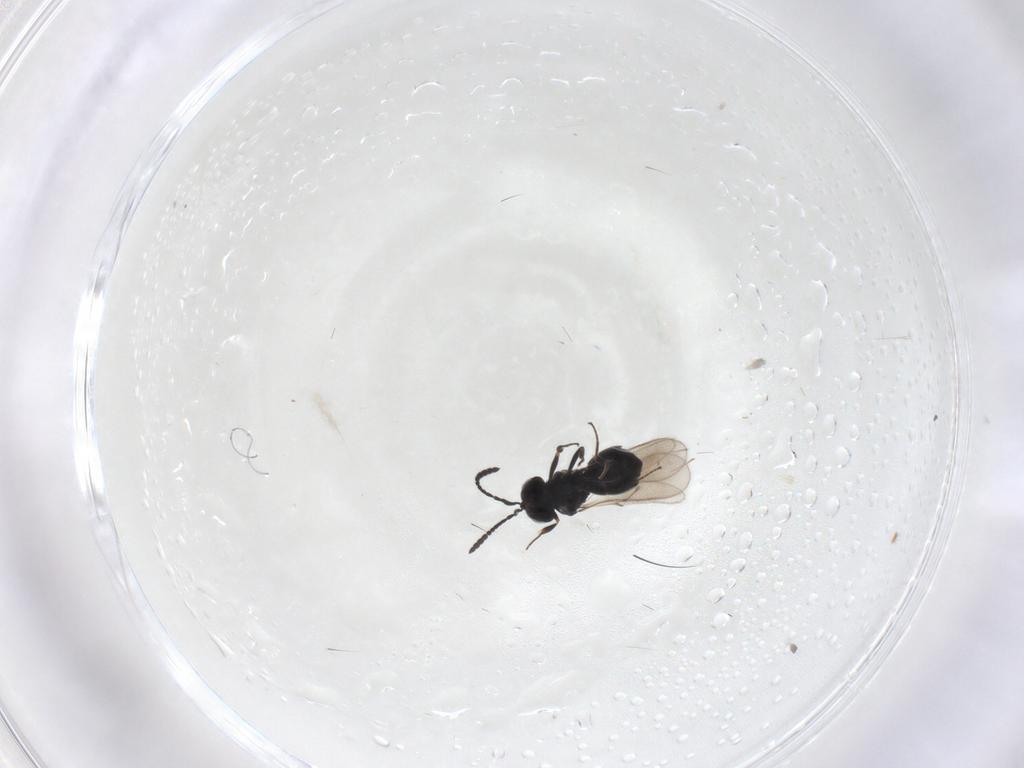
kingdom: Animalia
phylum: Arthropoda
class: Insecta
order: Hymenoptera
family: Scelionidae
